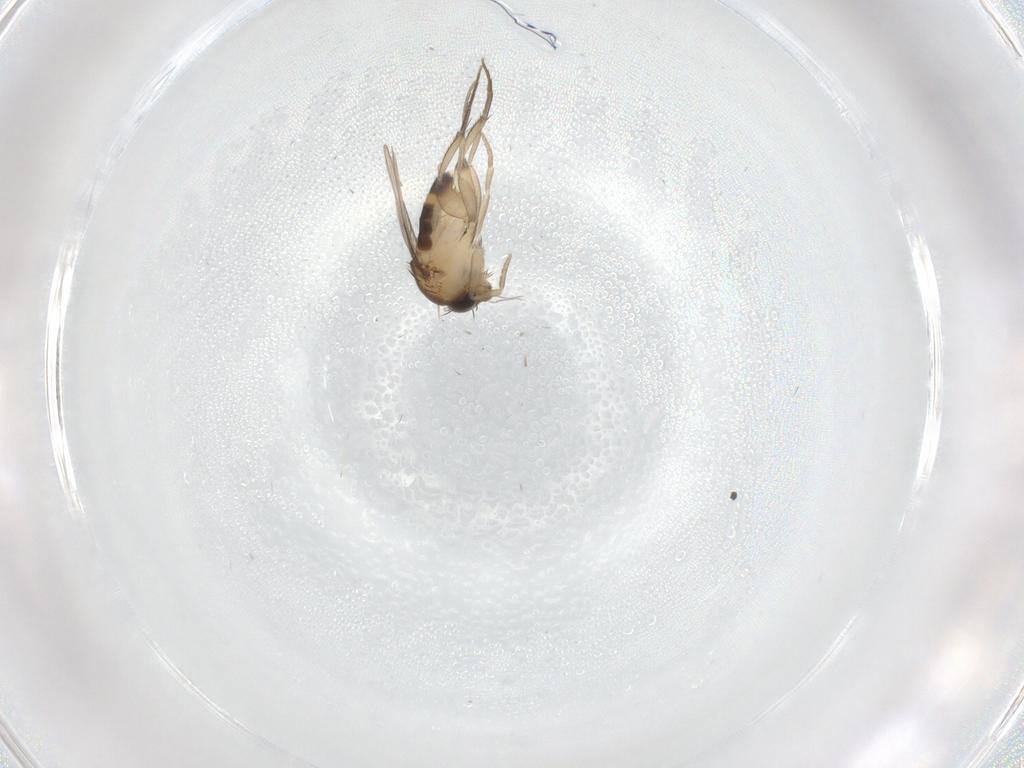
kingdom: Animalia
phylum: Arthropoda
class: Insecta
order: Diptera
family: Phoridae
